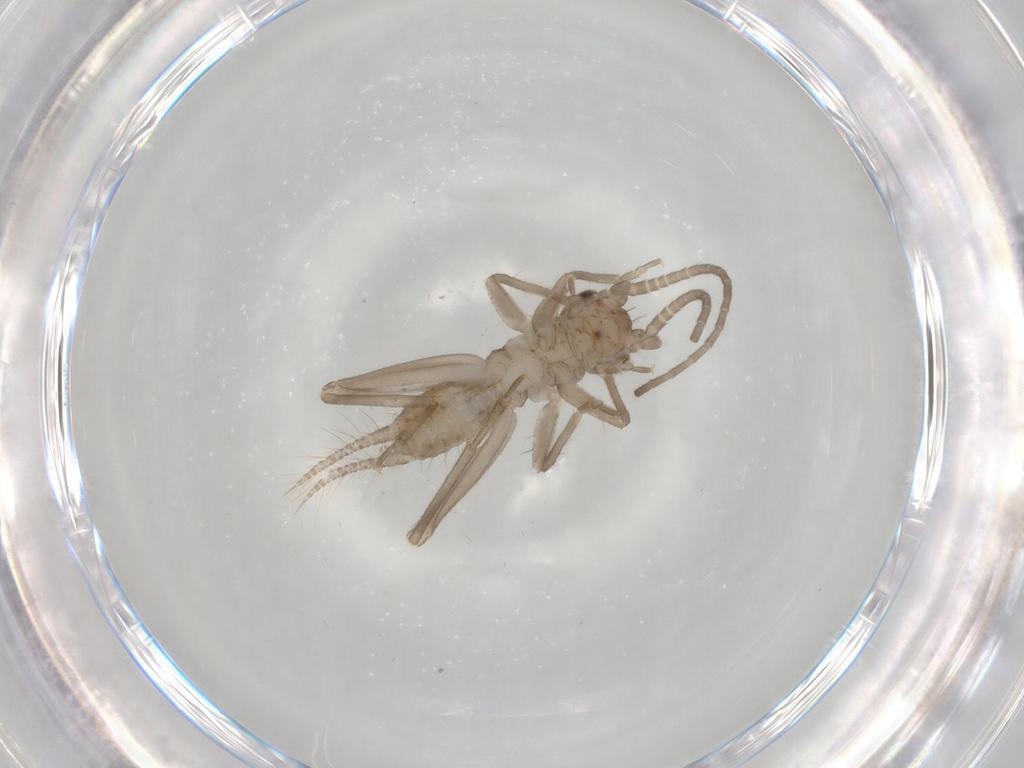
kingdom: Animalia
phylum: Arthropoda
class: Insecta
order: Orthoptera
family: Gryllidae
